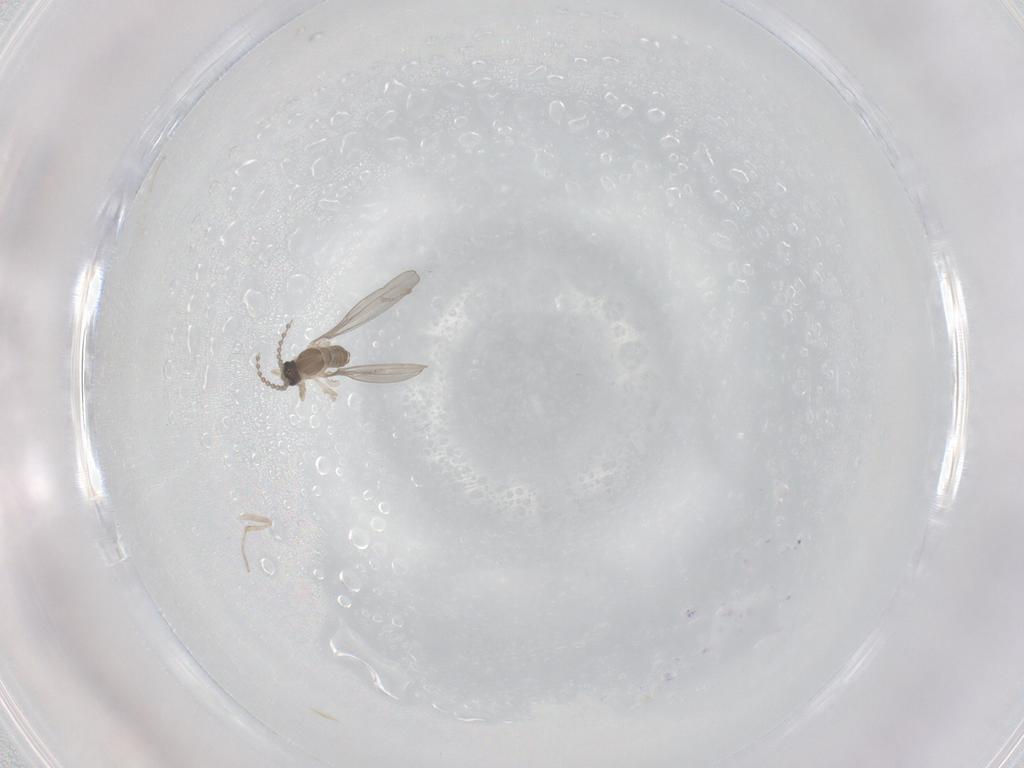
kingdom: Animalia
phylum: Arthropoda
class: Insecta
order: Diptera
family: Cecidomyiidae
